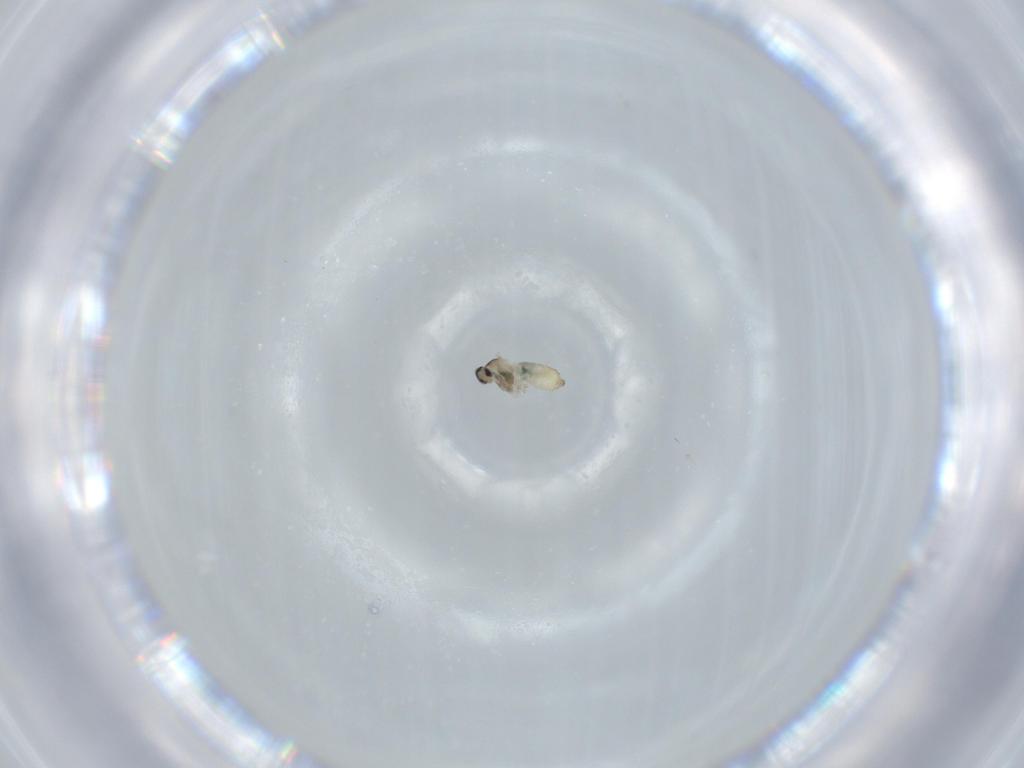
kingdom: Animalia
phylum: Arthropoda
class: Insecta
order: Diptera
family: Cecidomyiidae
